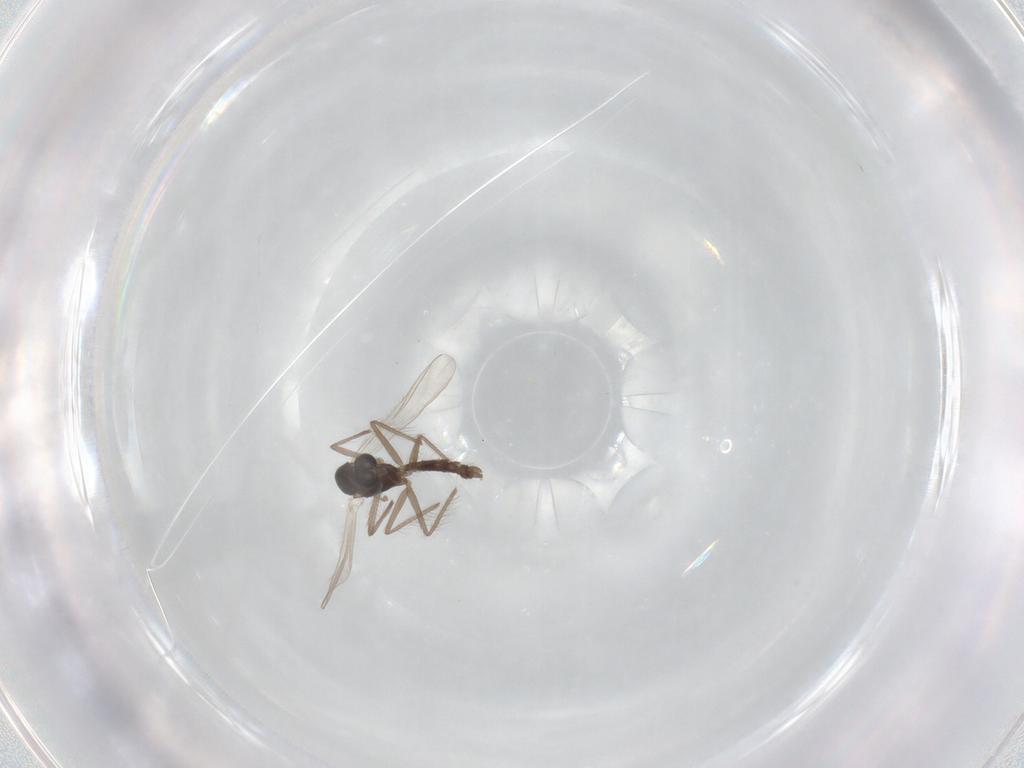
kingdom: Animalia
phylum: Arthropoda
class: Insecta
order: Diptera
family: Chironomidae
